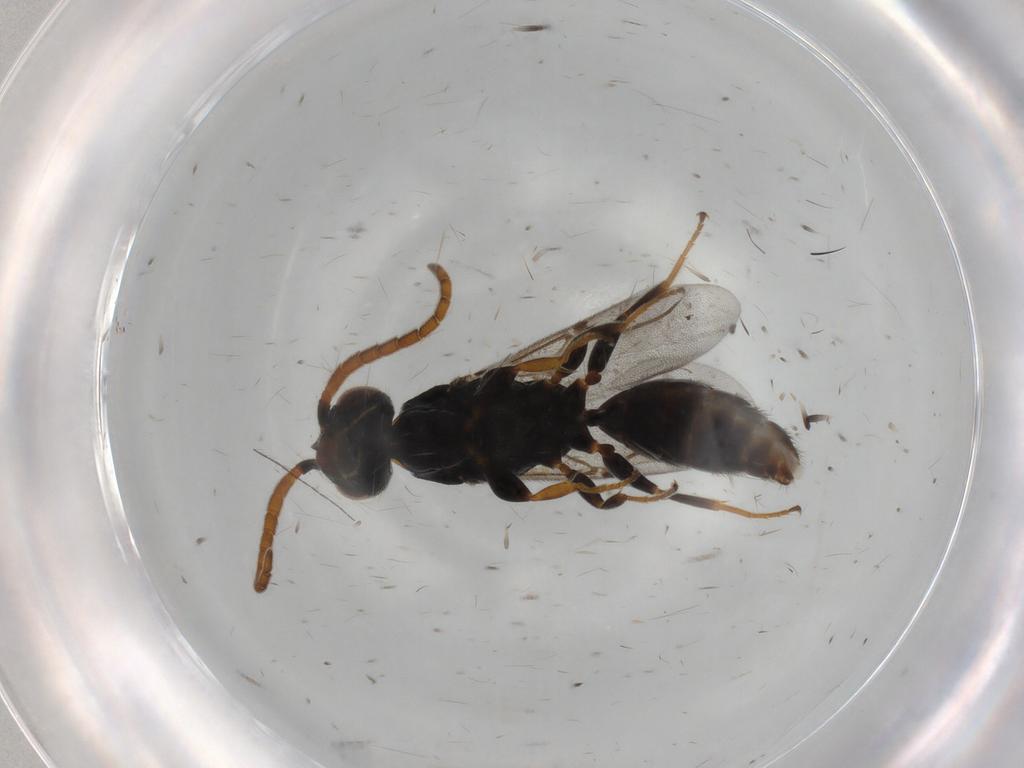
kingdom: Animalia
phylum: Arthropoda
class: Insecta
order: Hymenoptera
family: Bethylidae
